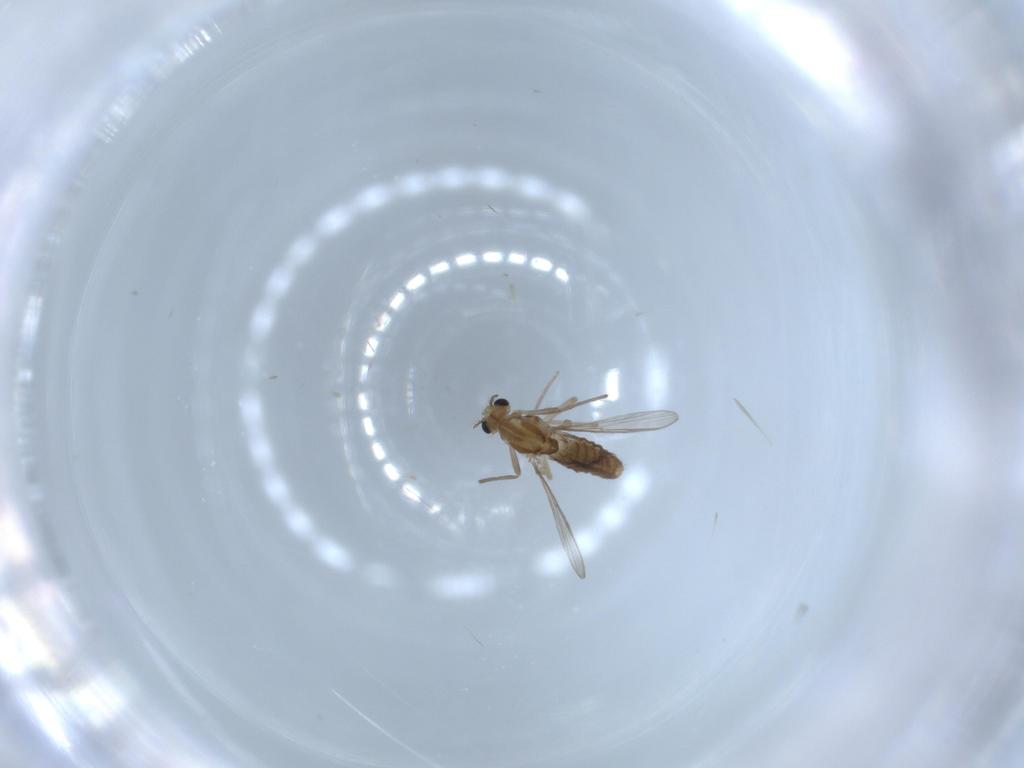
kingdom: Animalia
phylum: Arthropoda
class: Insecta
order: Diptera
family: Chironomidae
